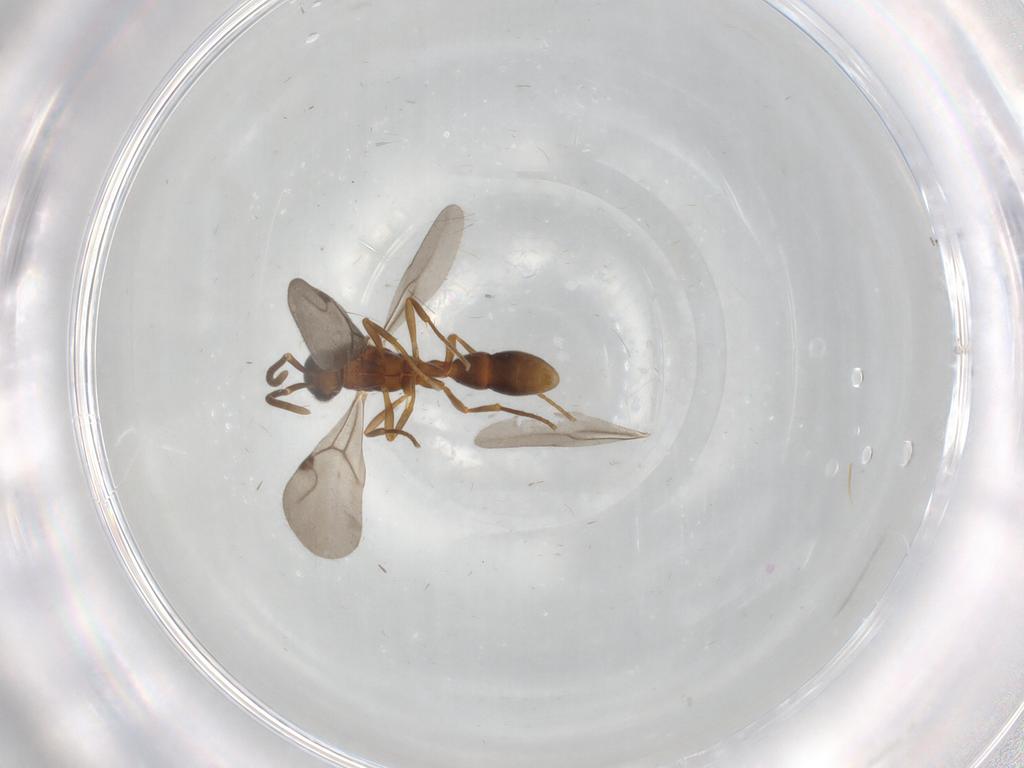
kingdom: Animalia
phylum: Arthropoda
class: Insecta
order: Hymenoptera
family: Formicidae
